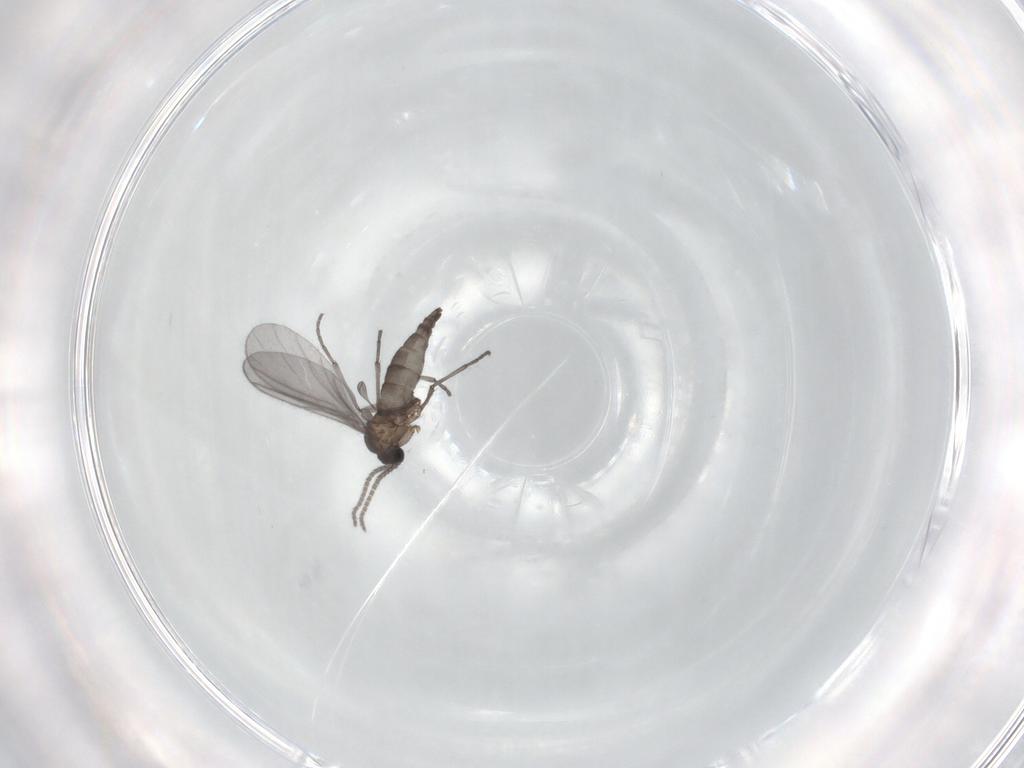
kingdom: Animalia
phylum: Arthropoda
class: Insecta
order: Diptera
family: Sciaridae
